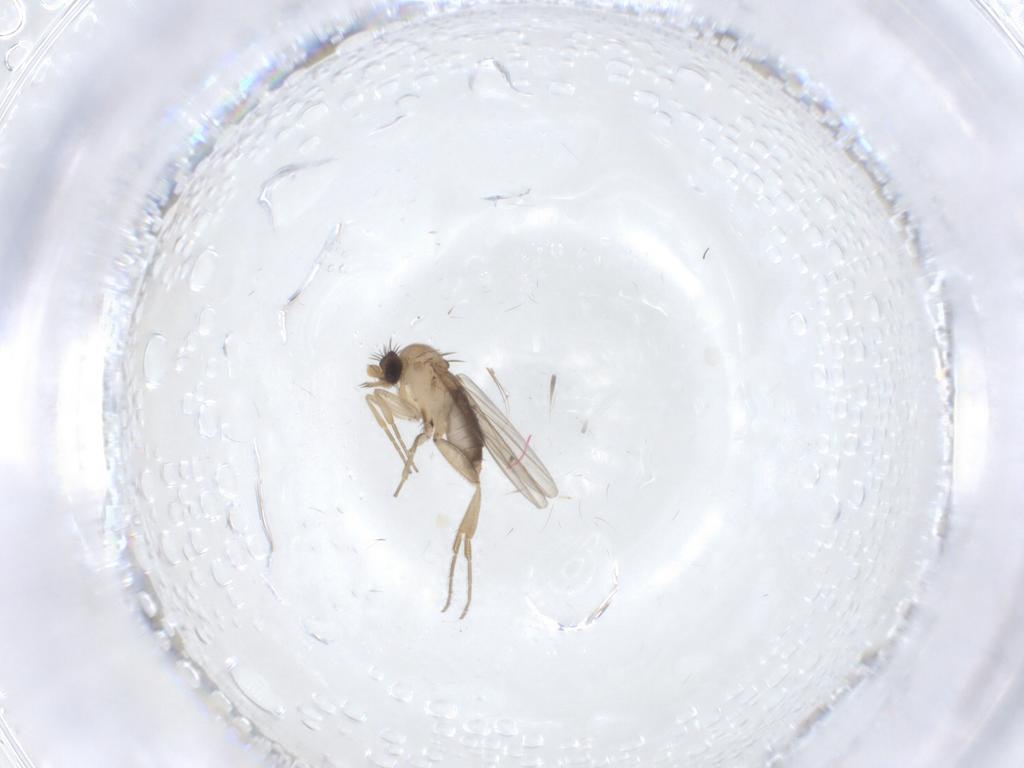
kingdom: Animalia
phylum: Arthropoda
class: Insecta
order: Diptera
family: Phoridae
